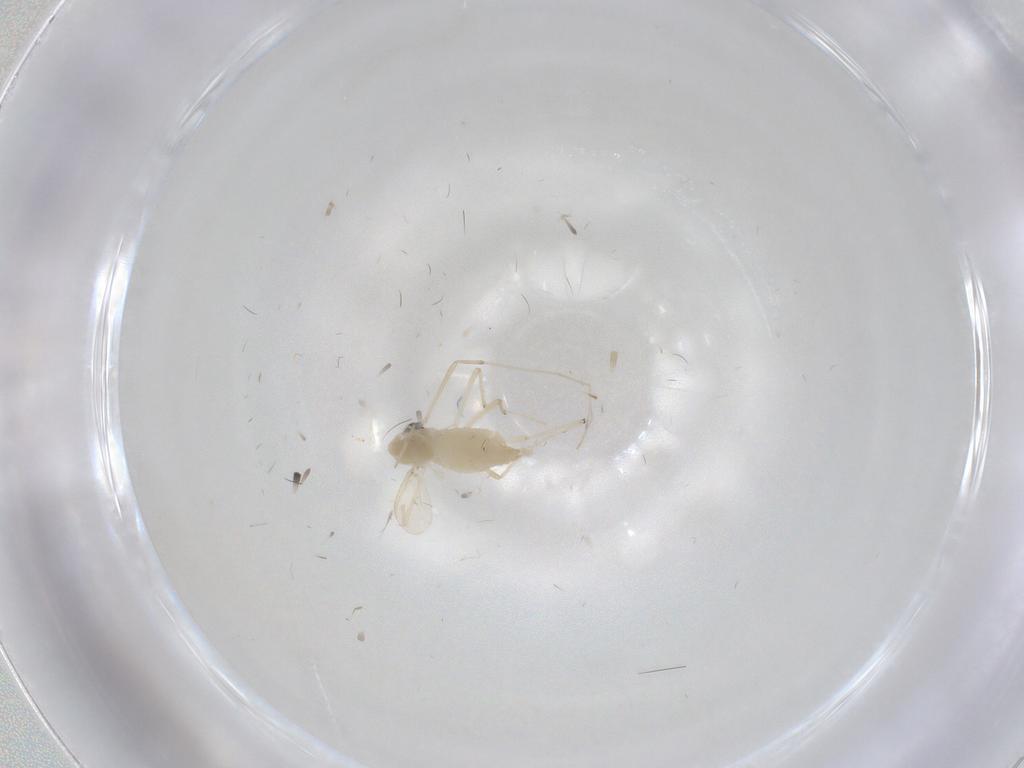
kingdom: Animalia
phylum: Arthropoda
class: Insecta
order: Diptera
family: Chironomidae
